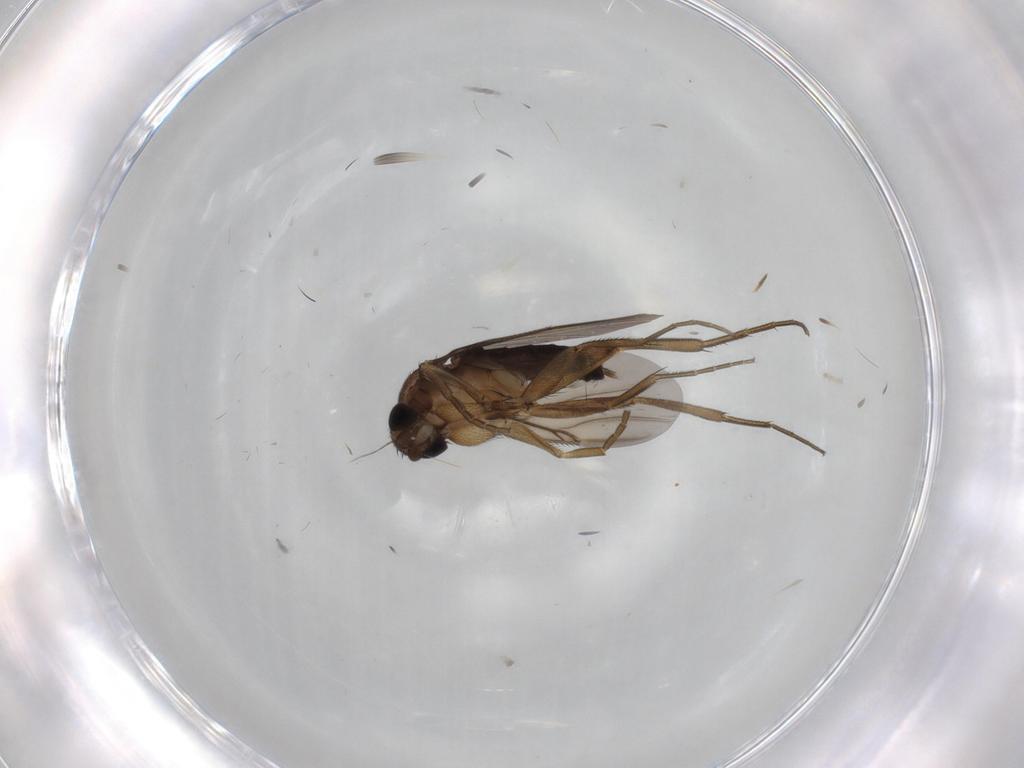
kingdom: Animalia
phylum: Arthropoda
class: Insecta
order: Diptera
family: Phoridae
